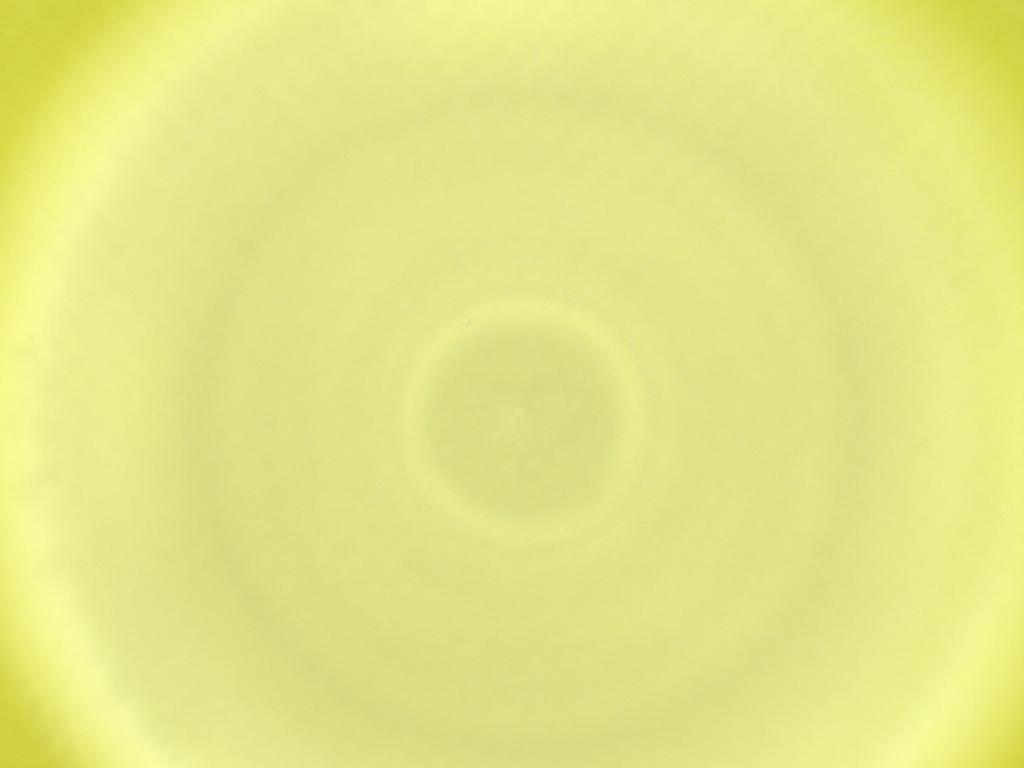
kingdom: Animalia
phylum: Arthropoda
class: Insecta
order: Diptera
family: Cecidomyiidae
